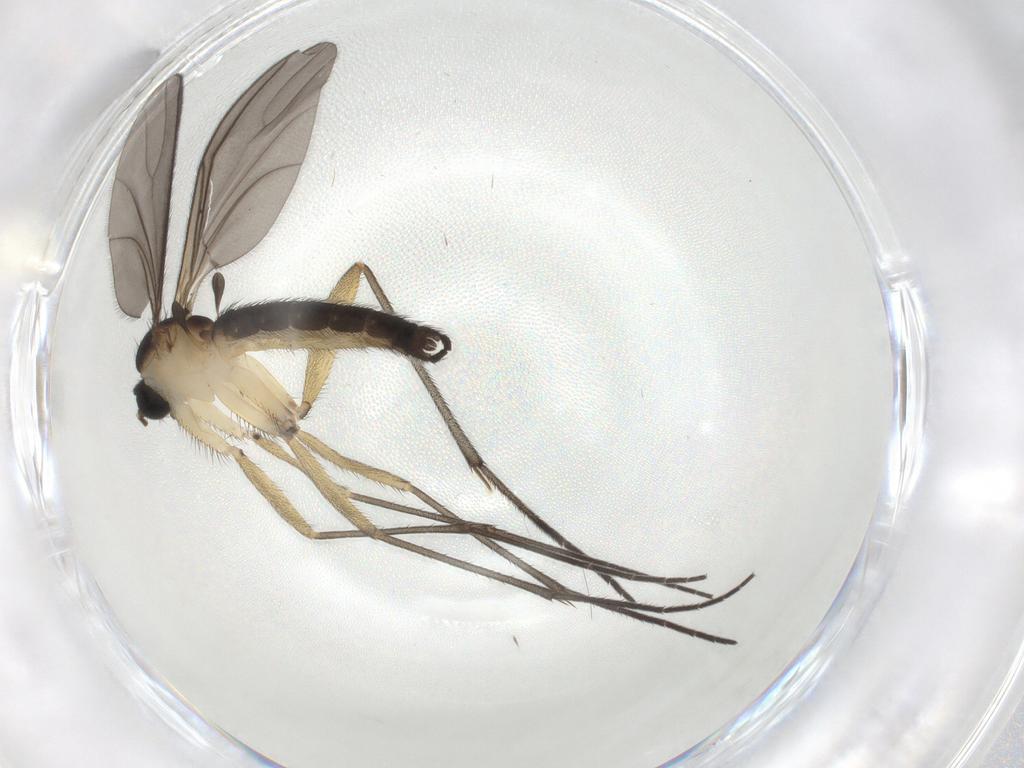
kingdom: Animalia
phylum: Arthropoda
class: Insecta
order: Diptera
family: Sciaridae
